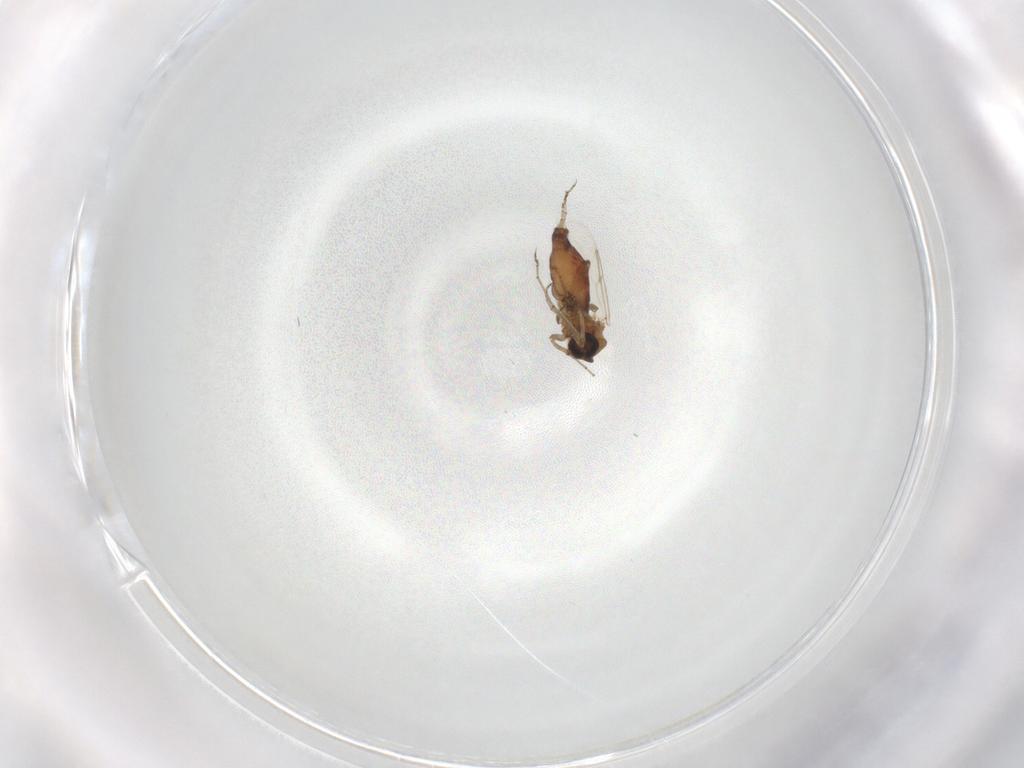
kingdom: Animalia
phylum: Arthropoda
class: Insecta
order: Diptera
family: Ceratopogonidae
